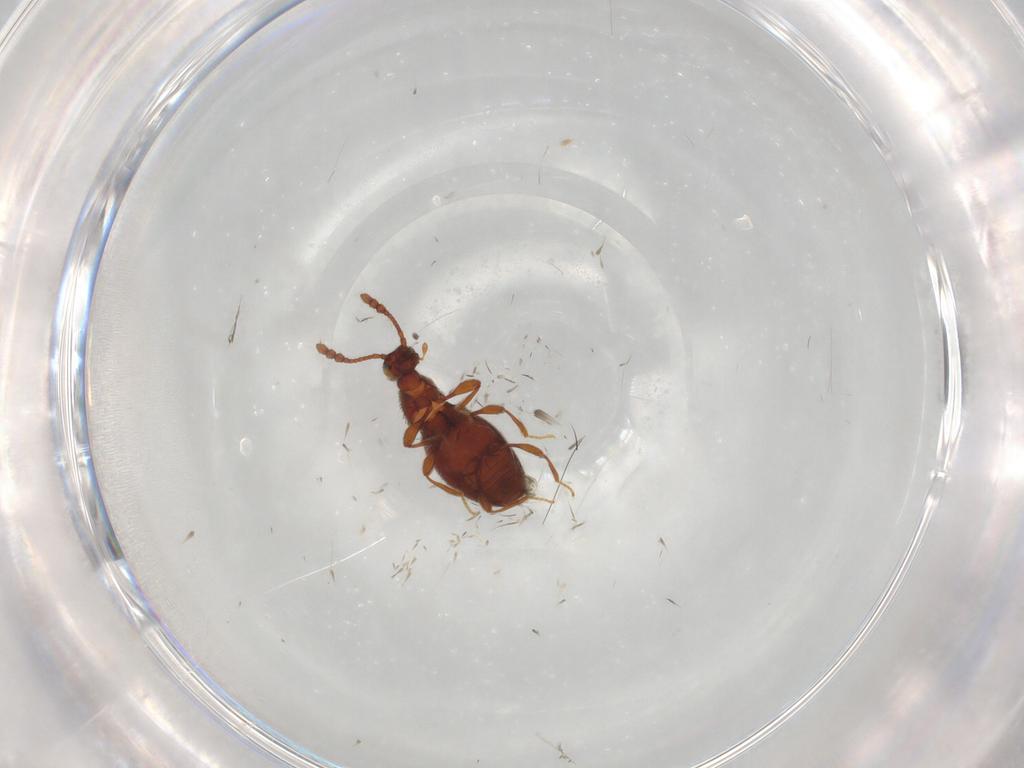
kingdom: Animalia
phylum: Arthropoda
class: Insecta
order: Coleoptera
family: Staphylinidae
